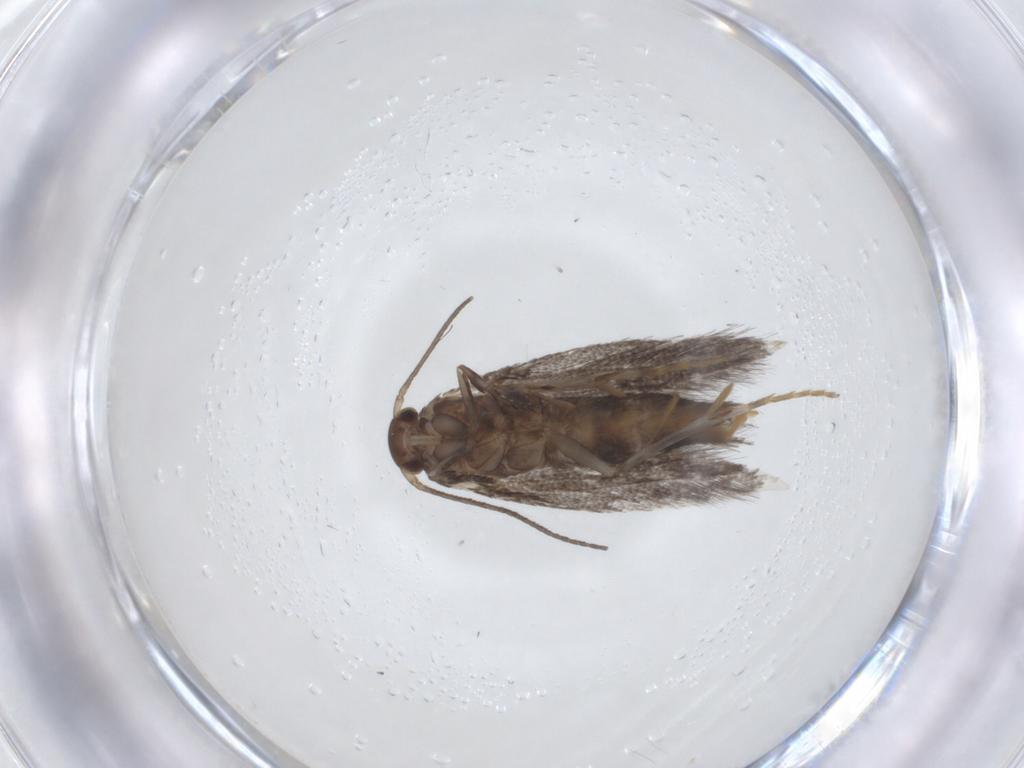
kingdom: Animalia
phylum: Arthropoda
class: Insecta
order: Lepidoptera
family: Elachistidae
